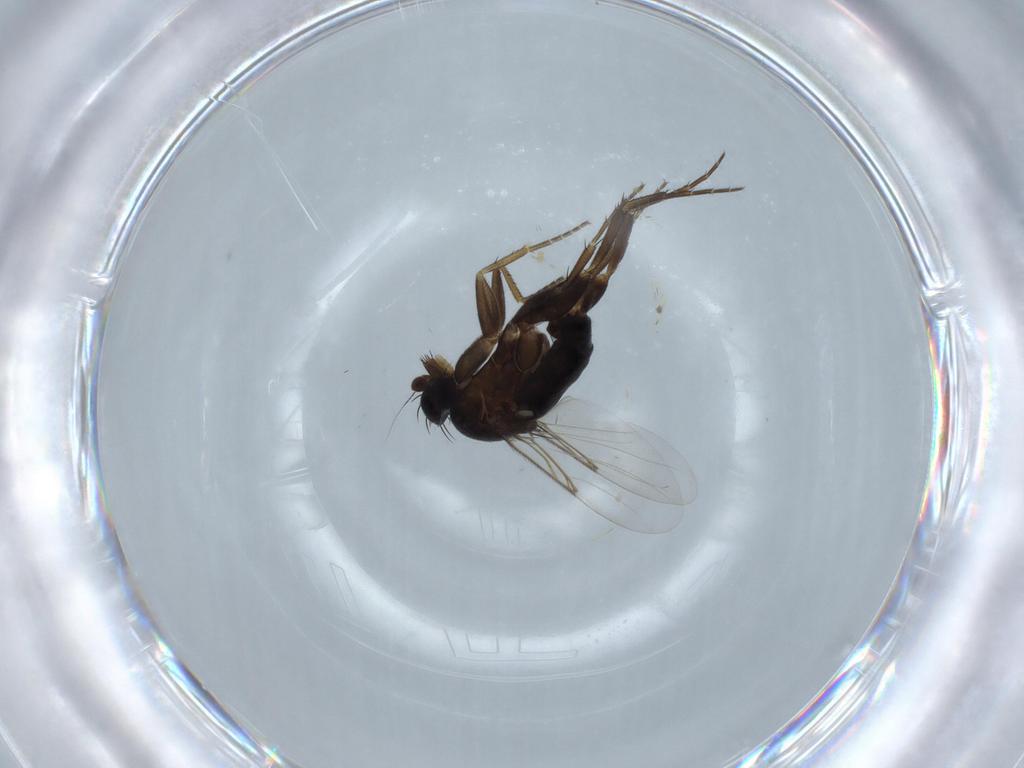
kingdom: Animalia
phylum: Arthropoda
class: Insecta
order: Diptera
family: Phoridae
